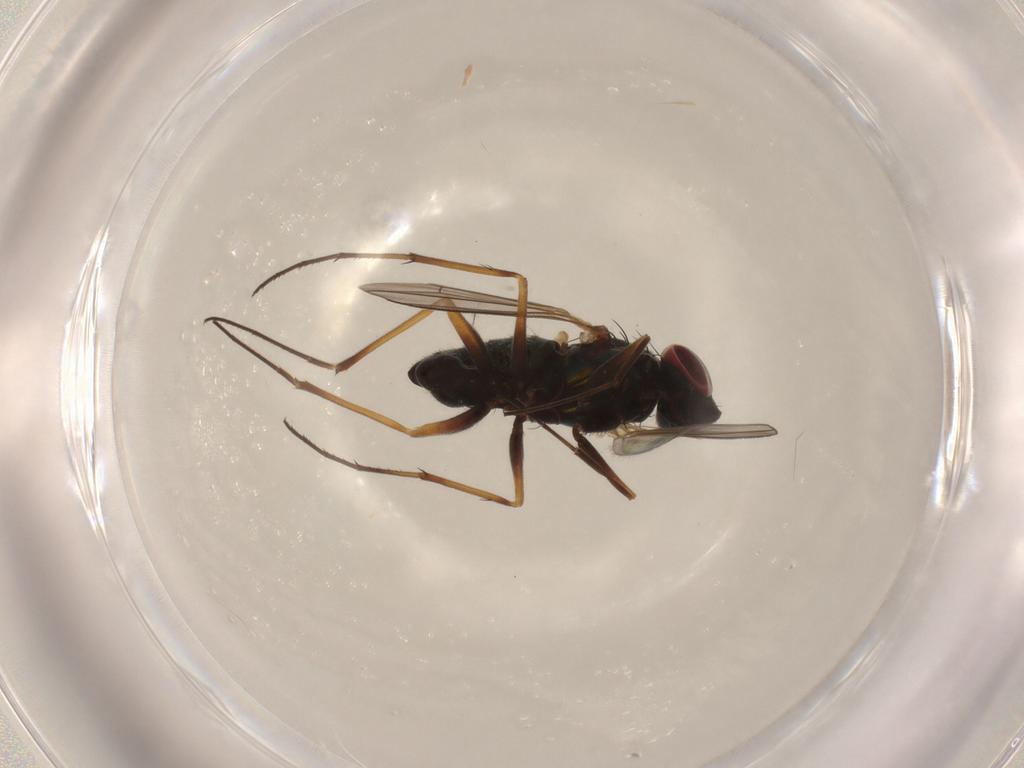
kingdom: Animalia
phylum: Arthropoda
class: Insecta
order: Diptera
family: Dolichopodidae
